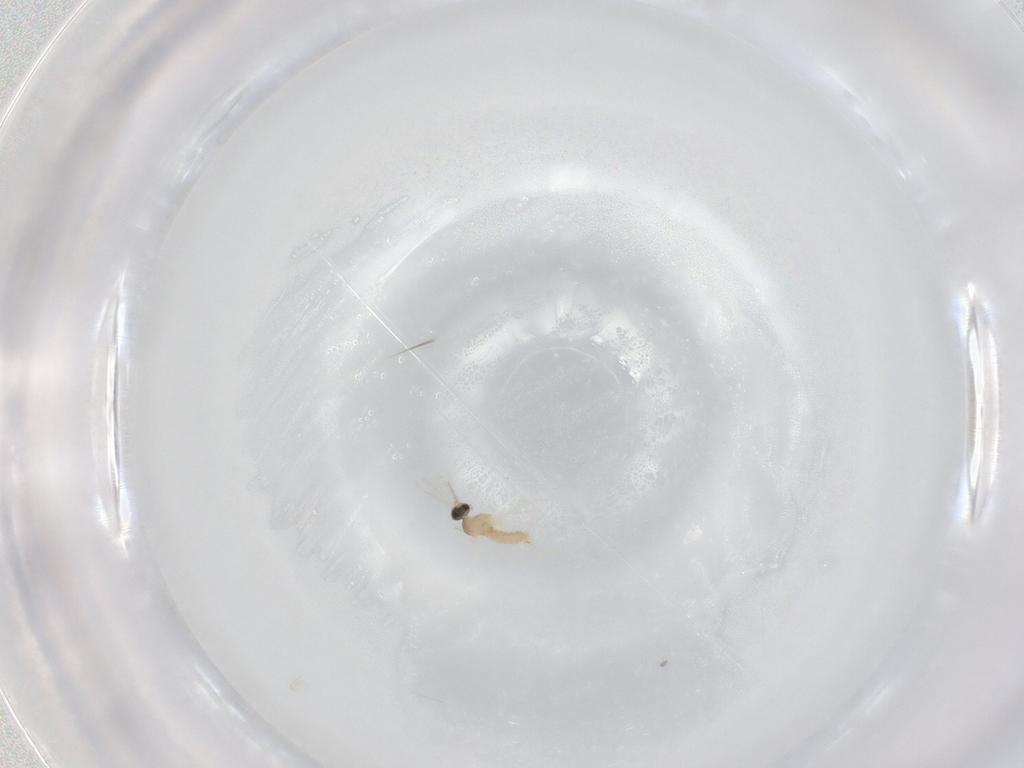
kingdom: Animalia
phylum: Arthropoda
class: Insecta
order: Diptera
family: Cecidomyiidae
